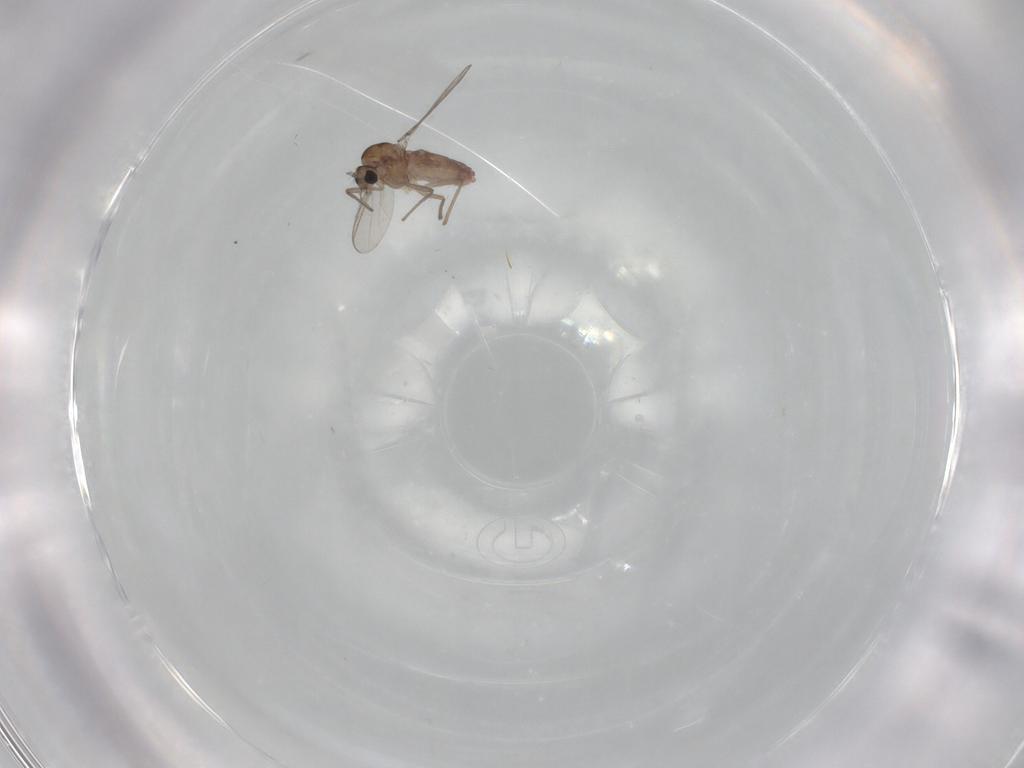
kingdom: Animalia
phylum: Arthropoda
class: Insecta
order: Diptera
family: Chironomidae
